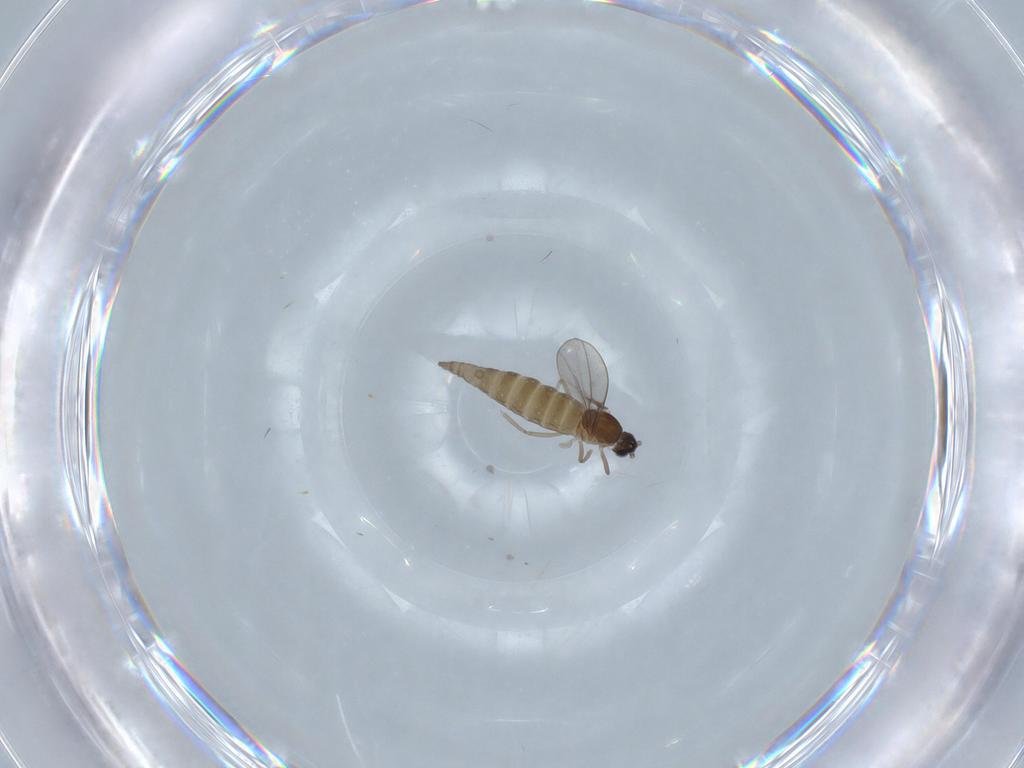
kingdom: Animalia
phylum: Arthropoda
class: Insecta
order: Diptera
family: Cecidomyiidae
